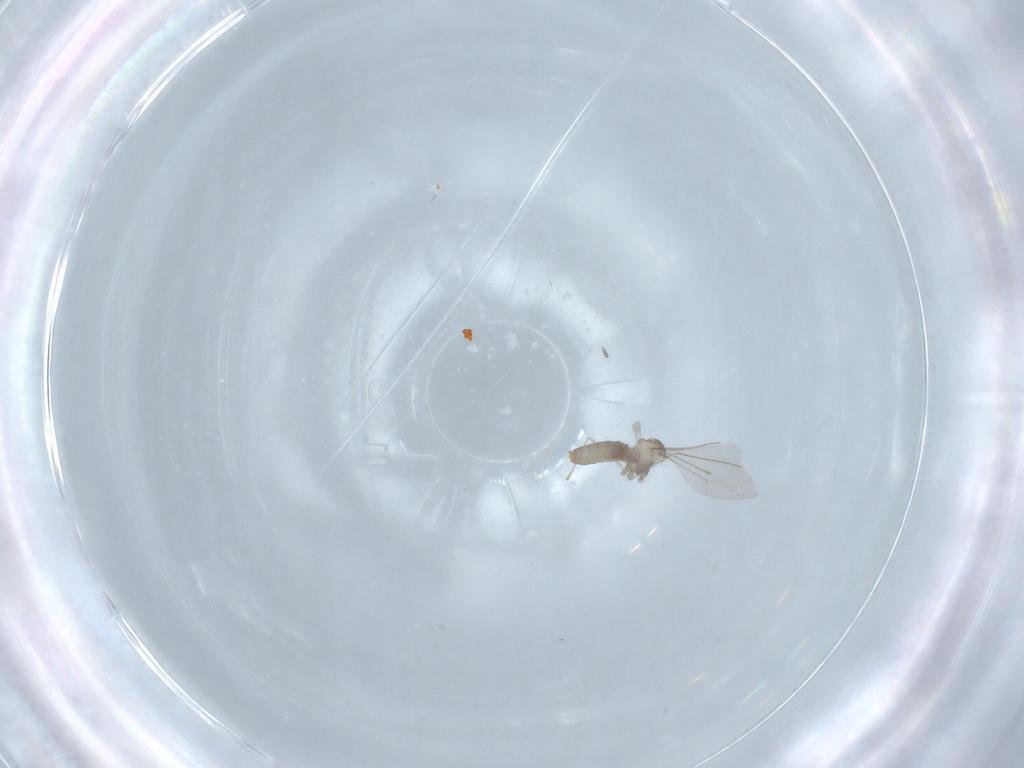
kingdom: Animalia
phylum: Arthropoda
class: Insecta
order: Diptera
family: Cecidomyiidae
